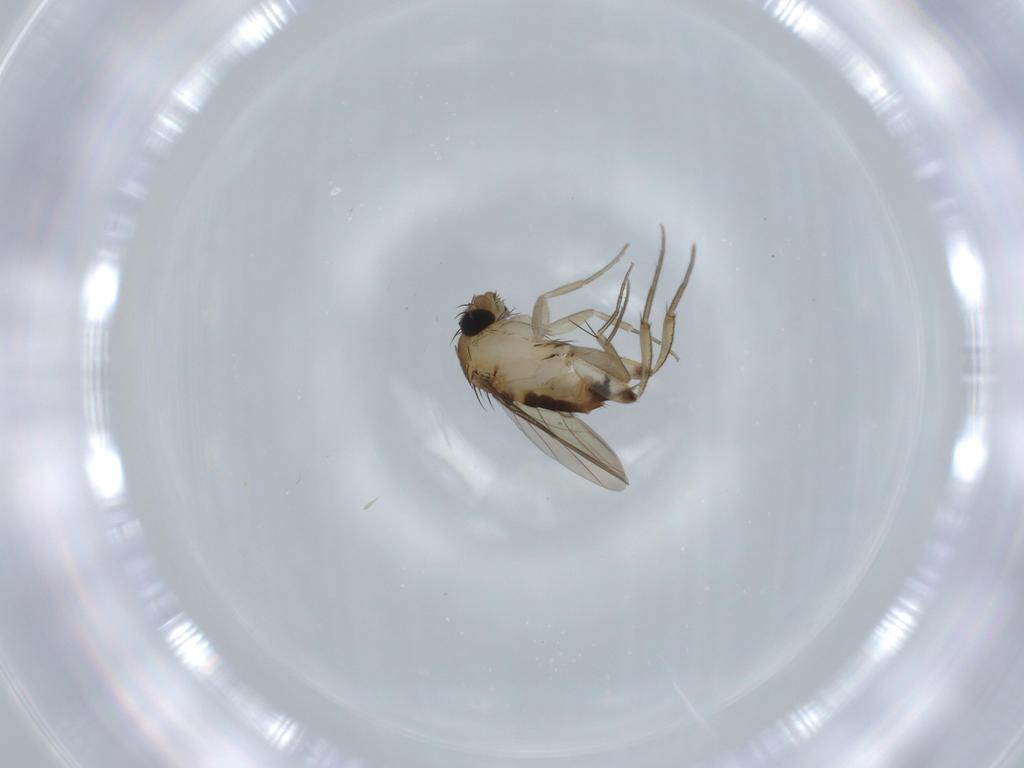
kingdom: Animalia
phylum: Arthropoda
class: Insecta
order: Diptera
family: Phoridae
